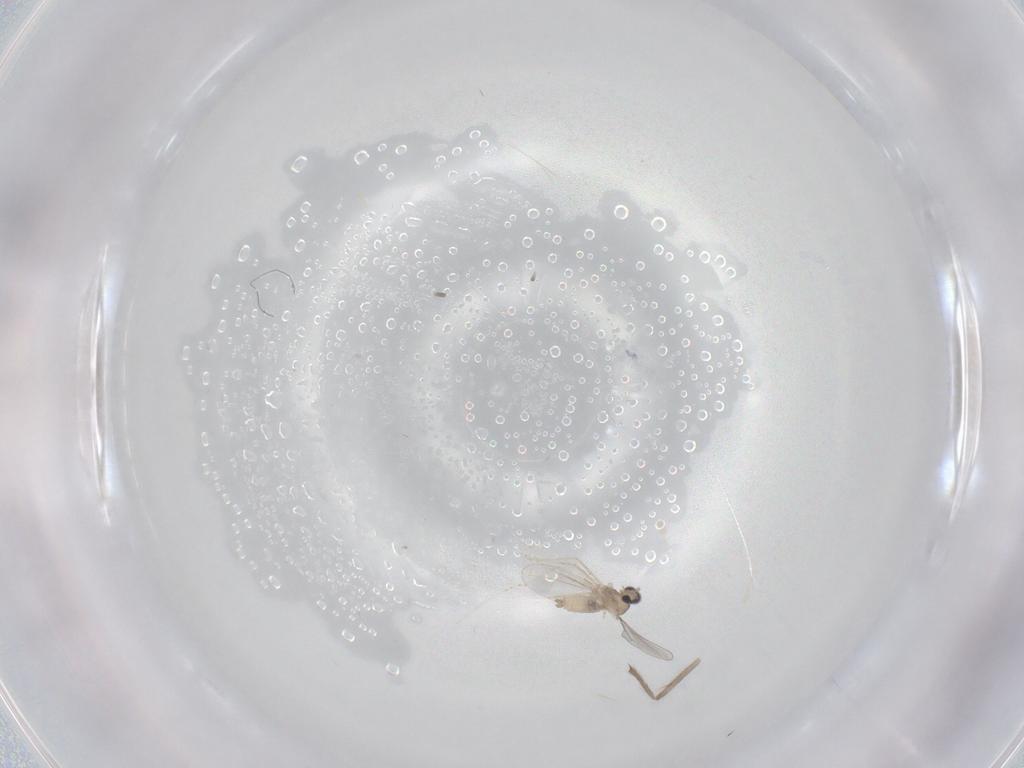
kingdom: Animalia
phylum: Arthropoda
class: Insecta
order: Diptera
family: Cecidomyiidae
